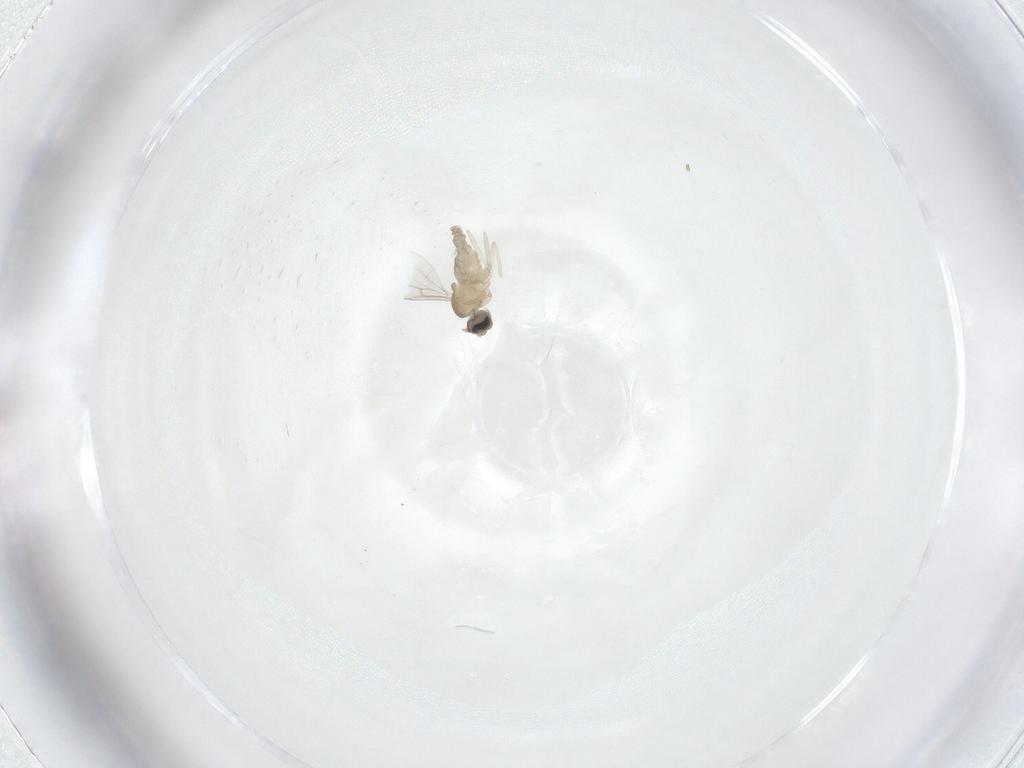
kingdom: Animalia
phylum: Arthropoda
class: Insecta
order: Diptera
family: Cecidomyiidae
